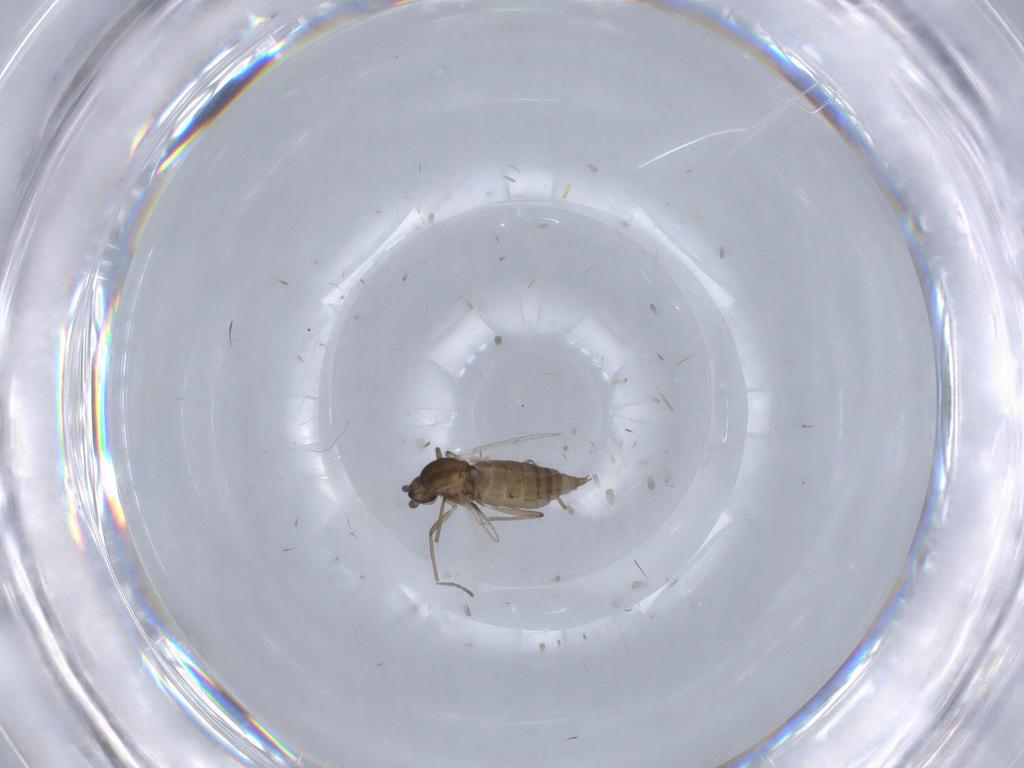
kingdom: Animalia
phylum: Arthropoda
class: Insecta
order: Diptera
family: Cecidomyiidae
